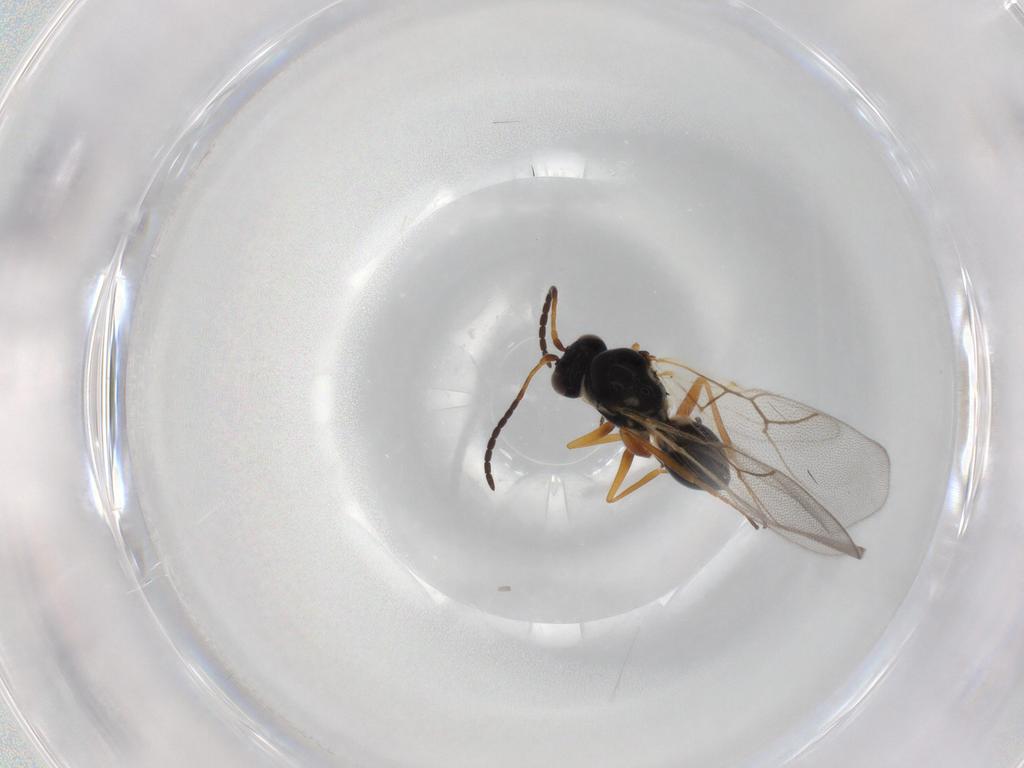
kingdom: Animalia
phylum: Arthropoda
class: Insecta
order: Hymenoptera
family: Figitidae
